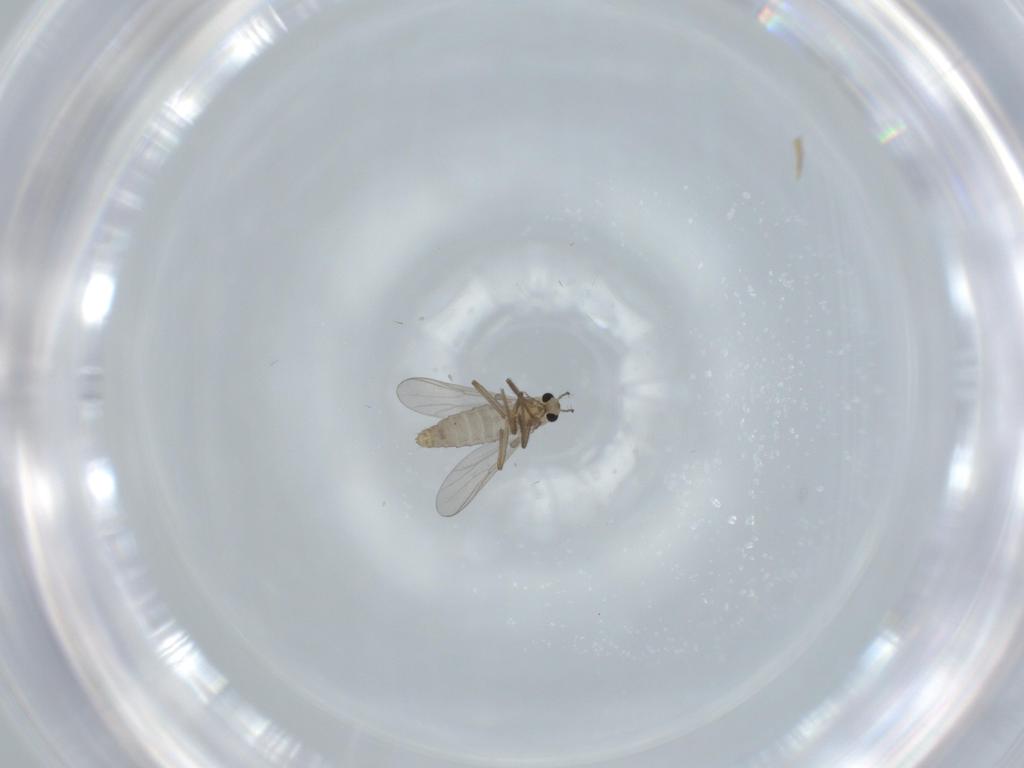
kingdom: Animalia
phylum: Arthropoda
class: Insecta
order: Diptera
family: Chironomidae
